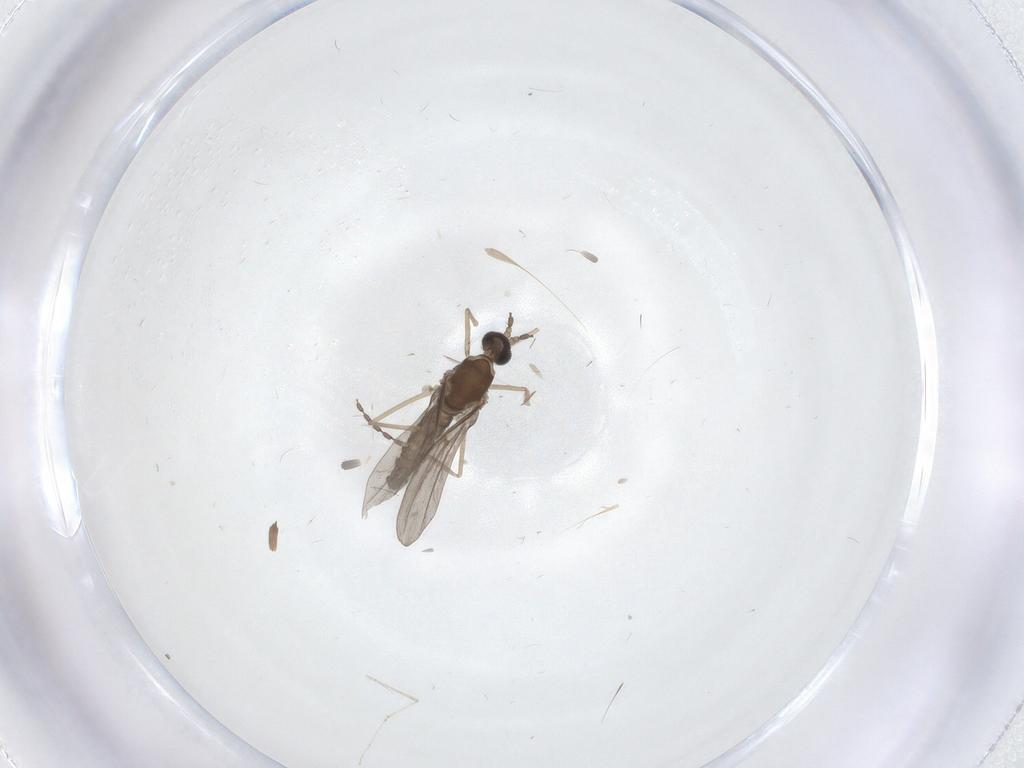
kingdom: Animalia
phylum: Arthropoda
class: Insecta
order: Diptera
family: Cecidomyiidae
